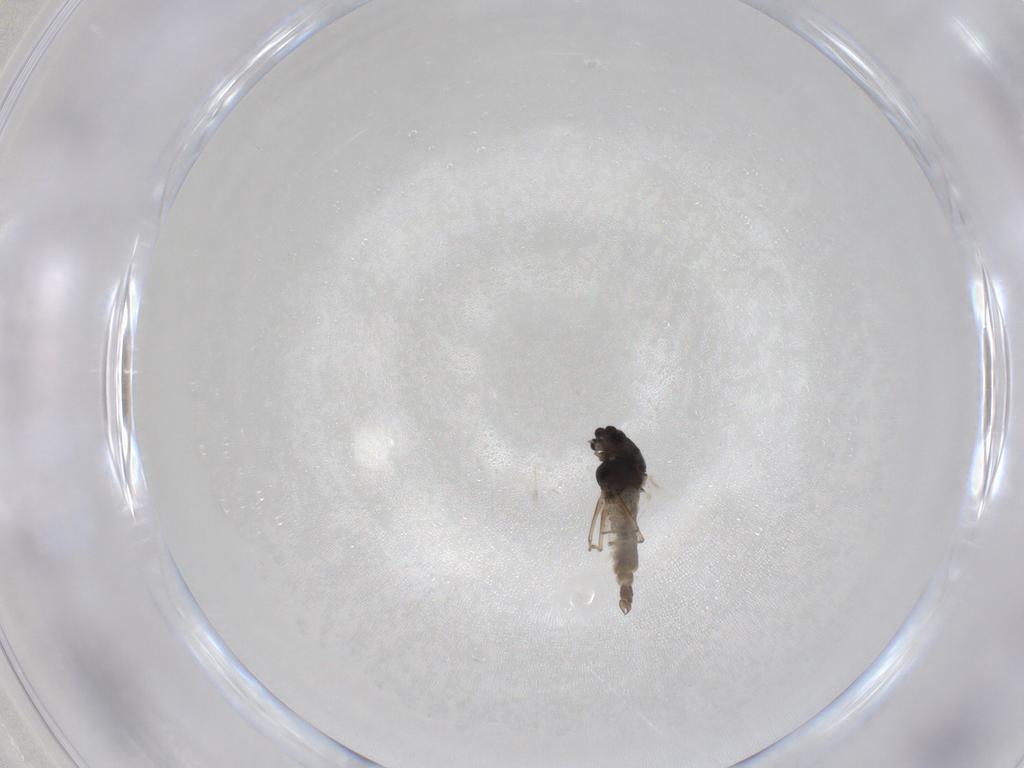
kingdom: Animalia
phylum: Arthropoda
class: Insecta
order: Diptera
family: Chironomidae
